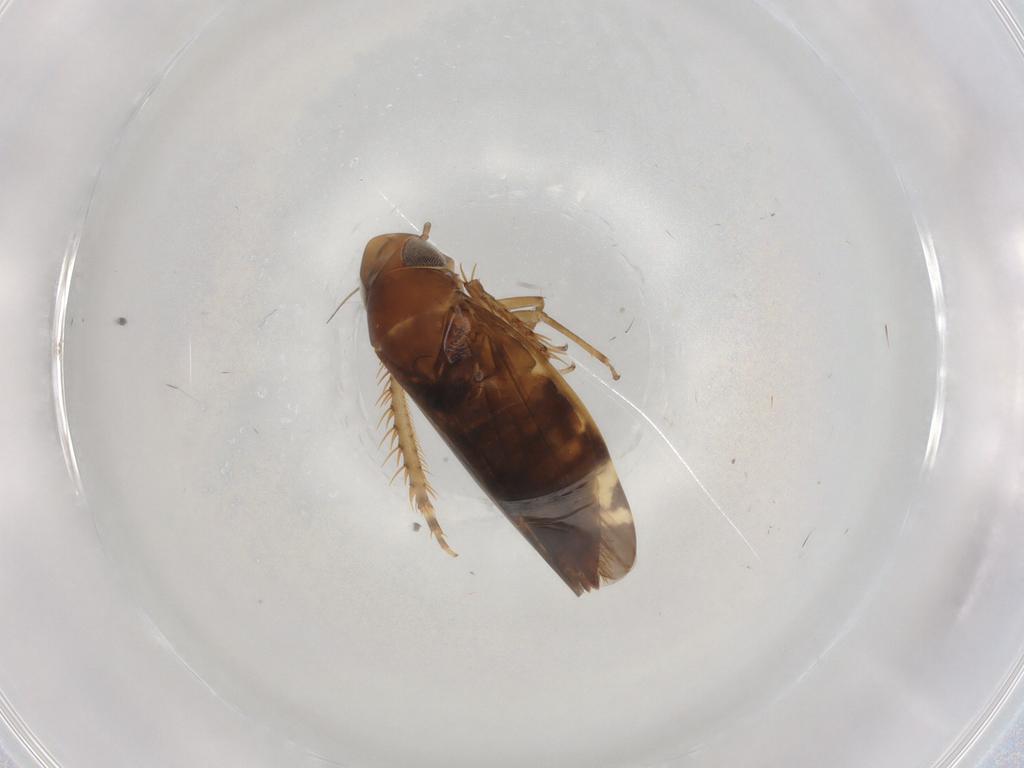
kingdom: Animalia
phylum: Arthropoda
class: Insecta
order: Hemiptera
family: Cicadellidae
